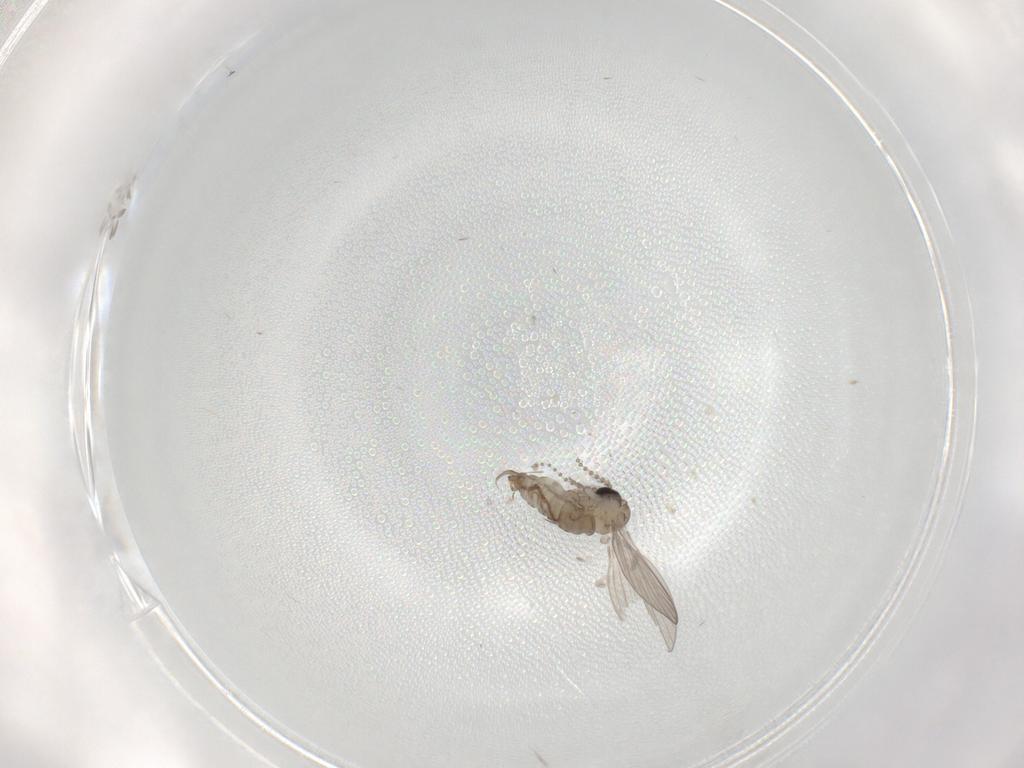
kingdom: Animalia
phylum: Arthropoda
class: Insecta
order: Diptera
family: Psychodidae
